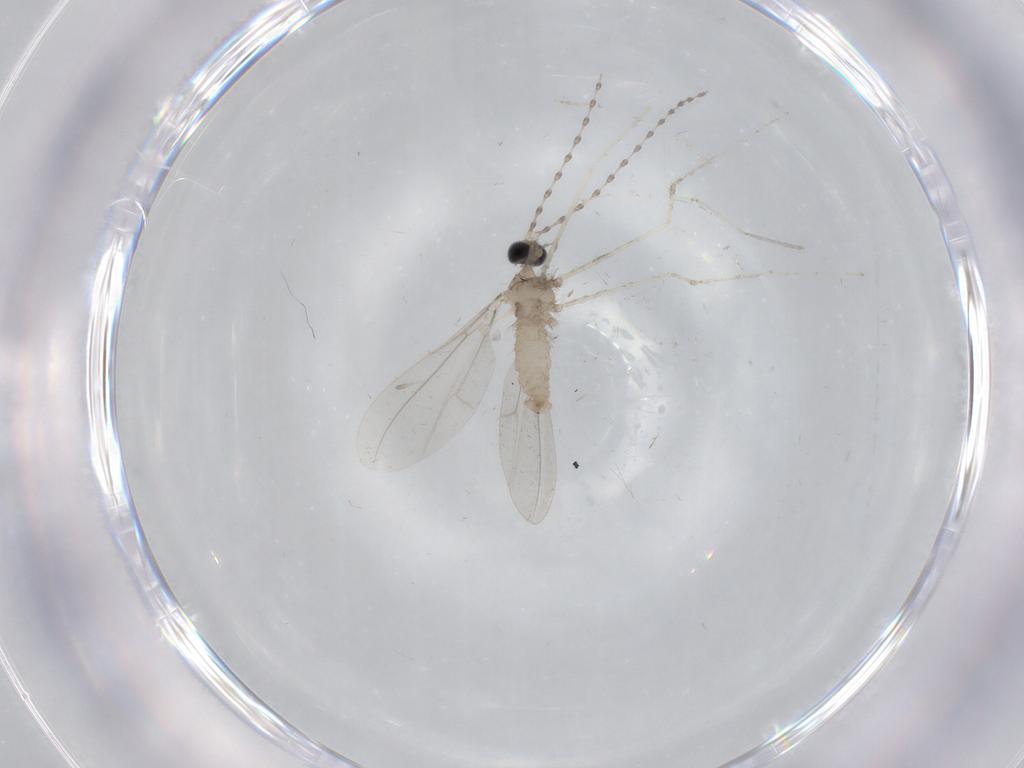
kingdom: Animalia
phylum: Arthropoda
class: Insecta
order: Diptera
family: Cecidomyiidae
